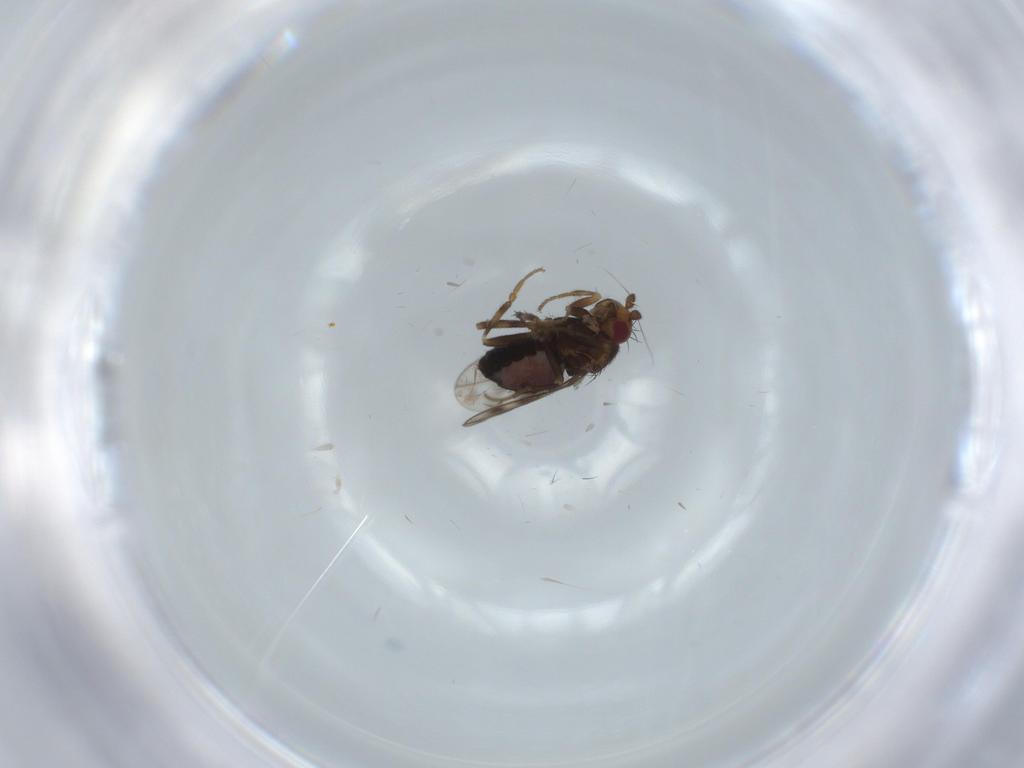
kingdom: Animalia
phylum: Arthropoda
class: Insecta
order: Diptera
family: Sphaeroceridae
